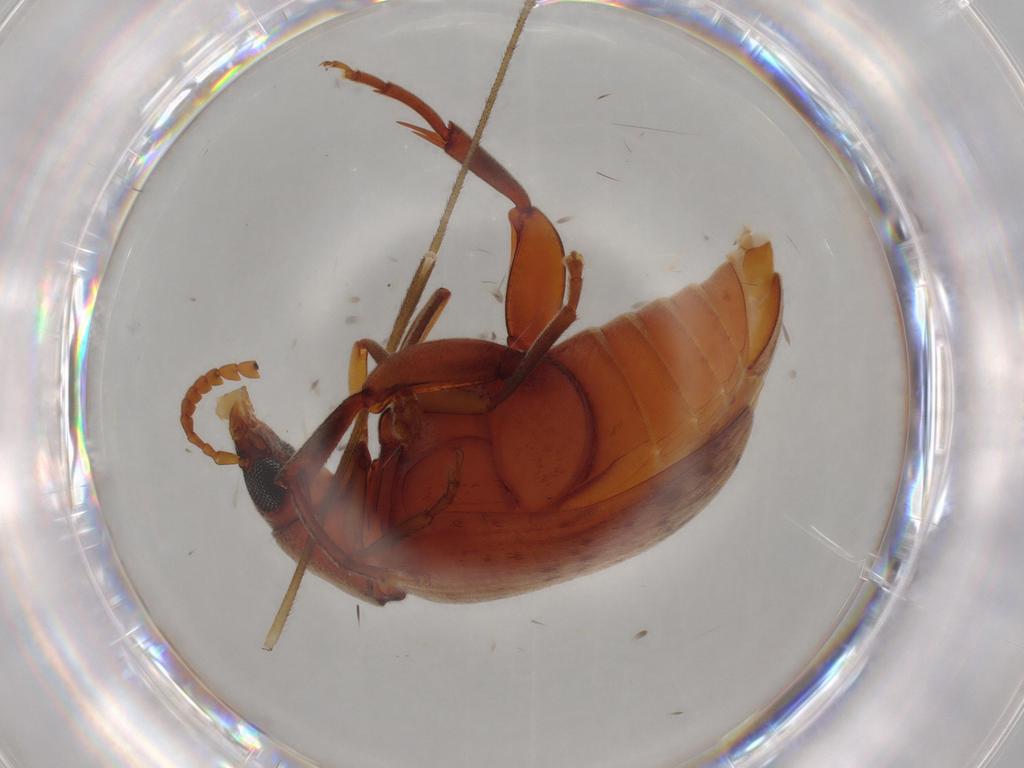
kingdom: Animalia
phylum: Arthropoda
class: Insecta
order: Coleoptera
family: Chrysomelidae
